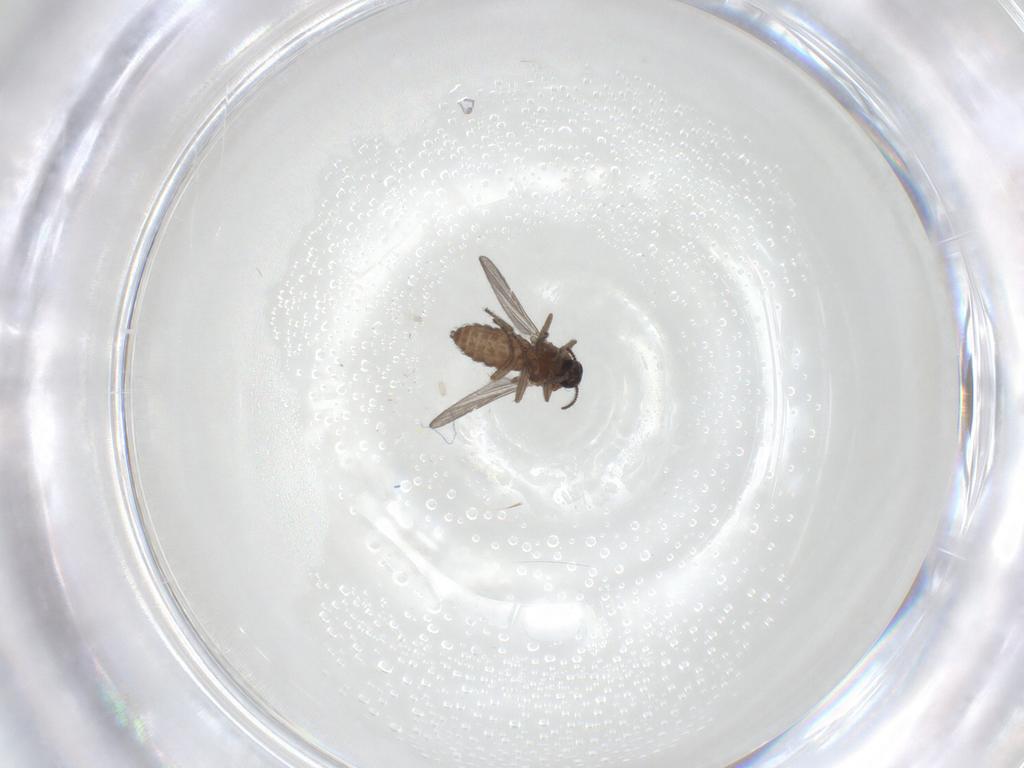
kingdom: Animalia
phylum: Arthropoda
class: Insecta
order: Diptera
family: Ceratopogonidae
